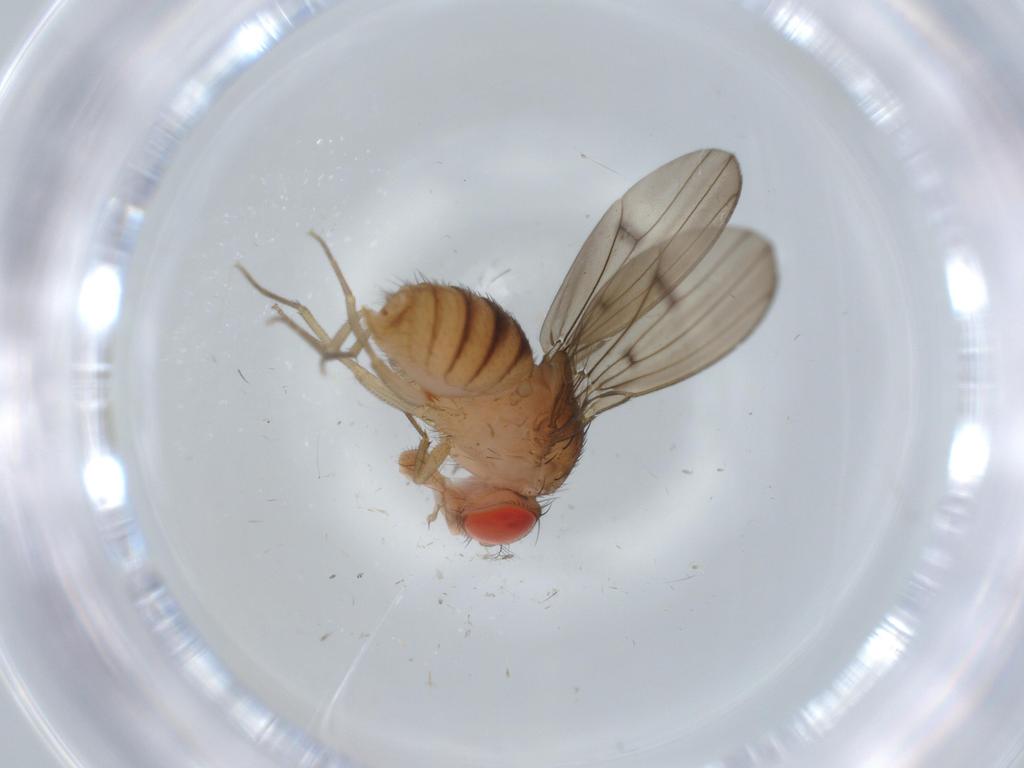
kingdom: Animalia
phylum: Arthropoda
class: Insecta
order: Diptera
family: Drosophilidae
